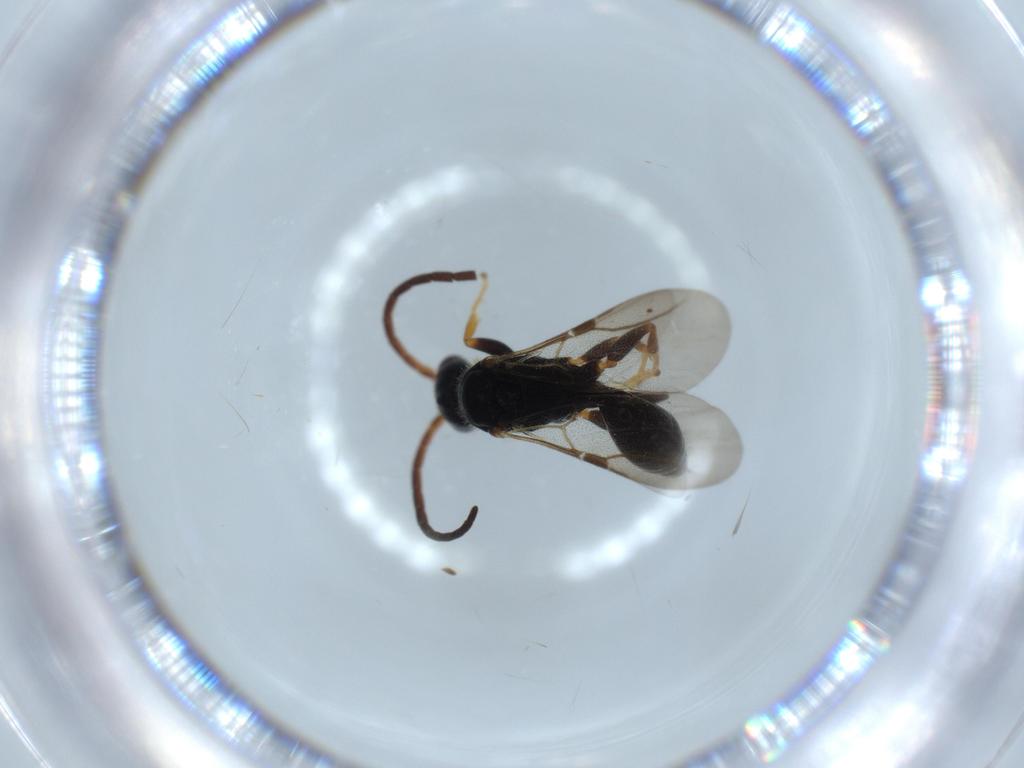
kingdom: Animalia
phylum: Arthropoda
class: Insecta
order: Hymenoptera
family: Bethylidae
